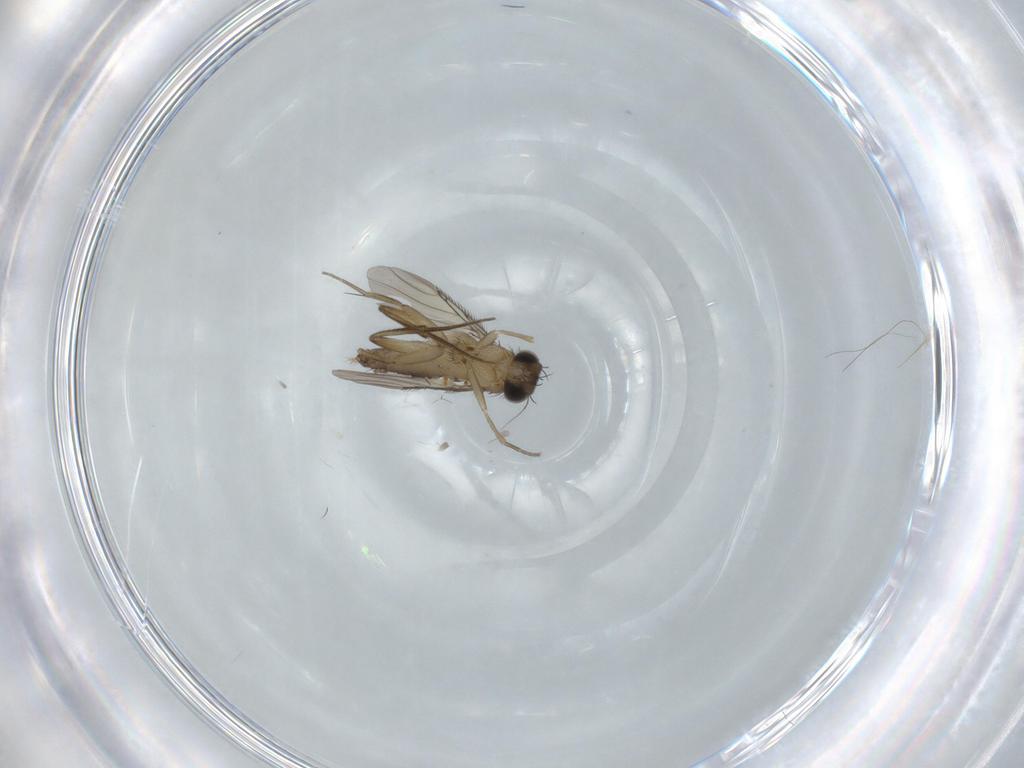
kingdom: Animalia
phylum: Arthropoda
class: Insecta
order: Diptera
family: Phoridae
